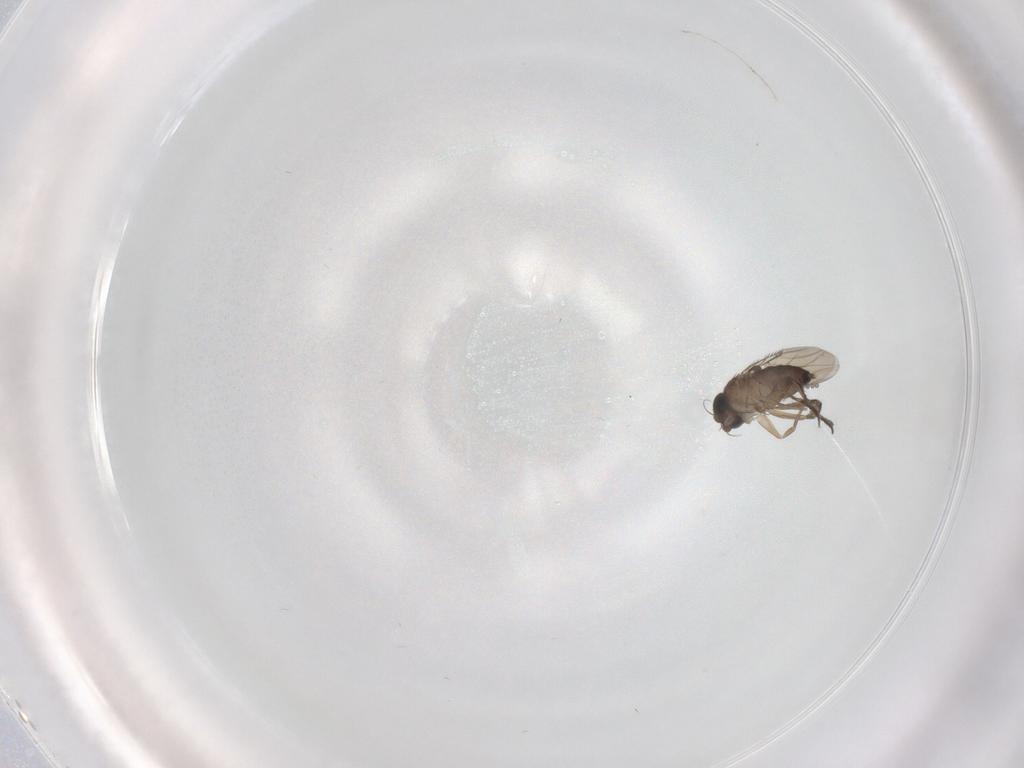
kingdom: Animalia
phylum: Arthropoda
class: Insecta
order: Diptera
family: Phoridae
